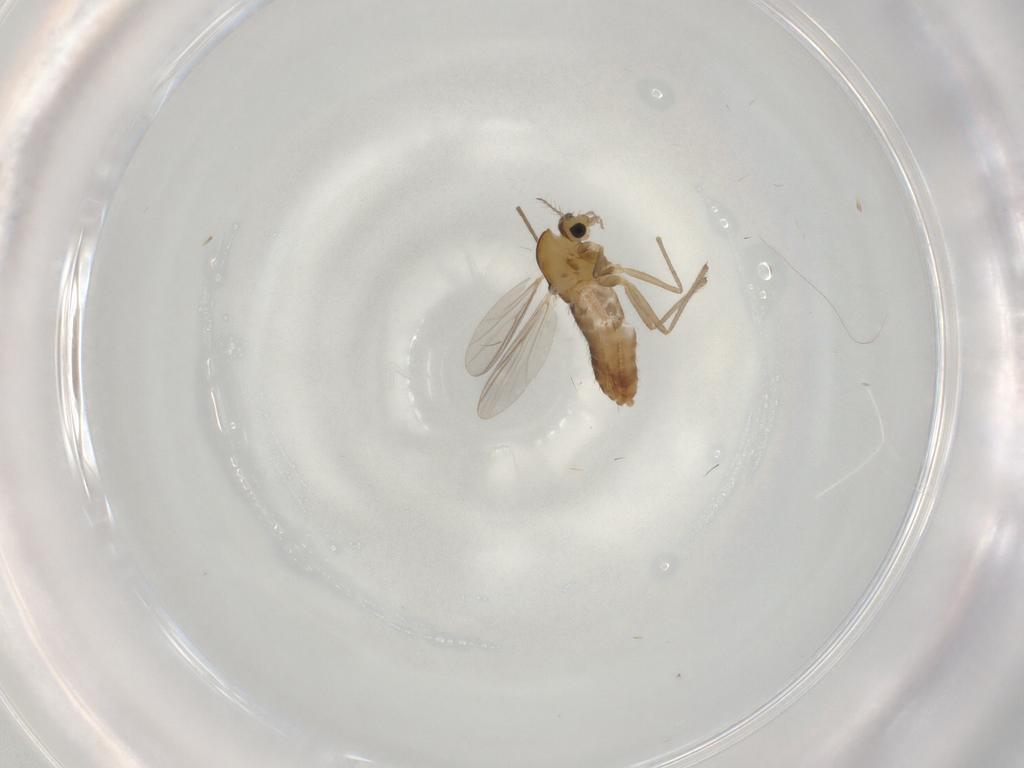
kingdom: Animalia
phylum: Arthropoda
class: Insecta
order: Diptera
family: Chironomidae
